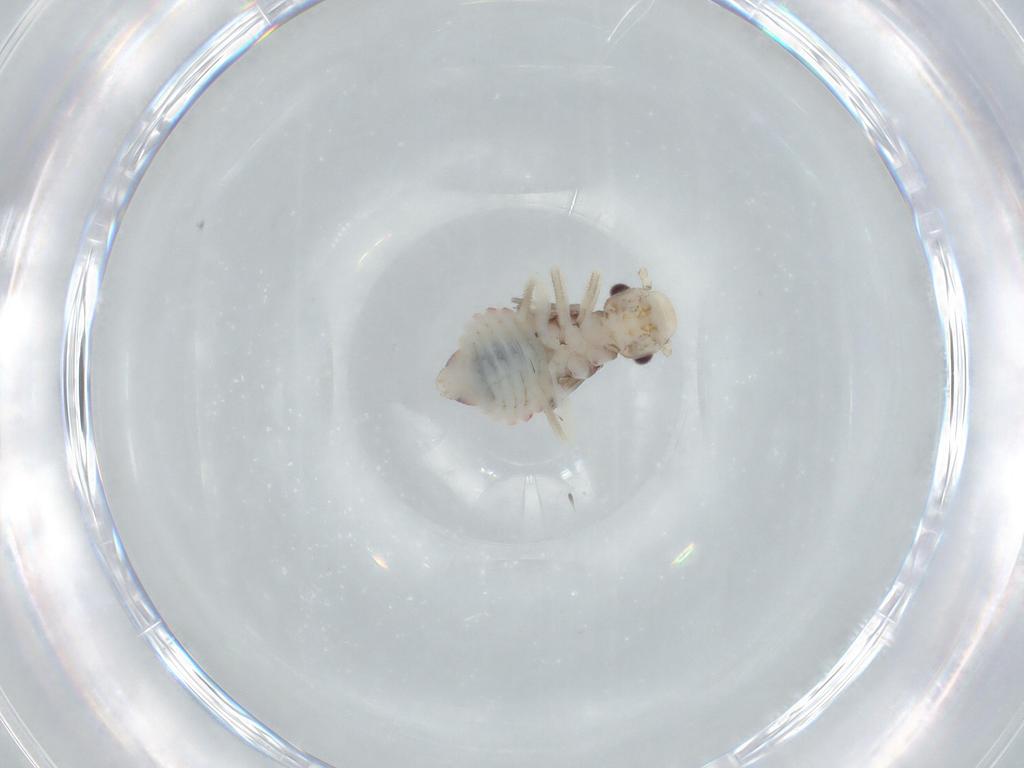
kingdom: Animalia
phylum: Arthropoda
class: Insecta
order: Psocodea
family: Amphipsocidae
